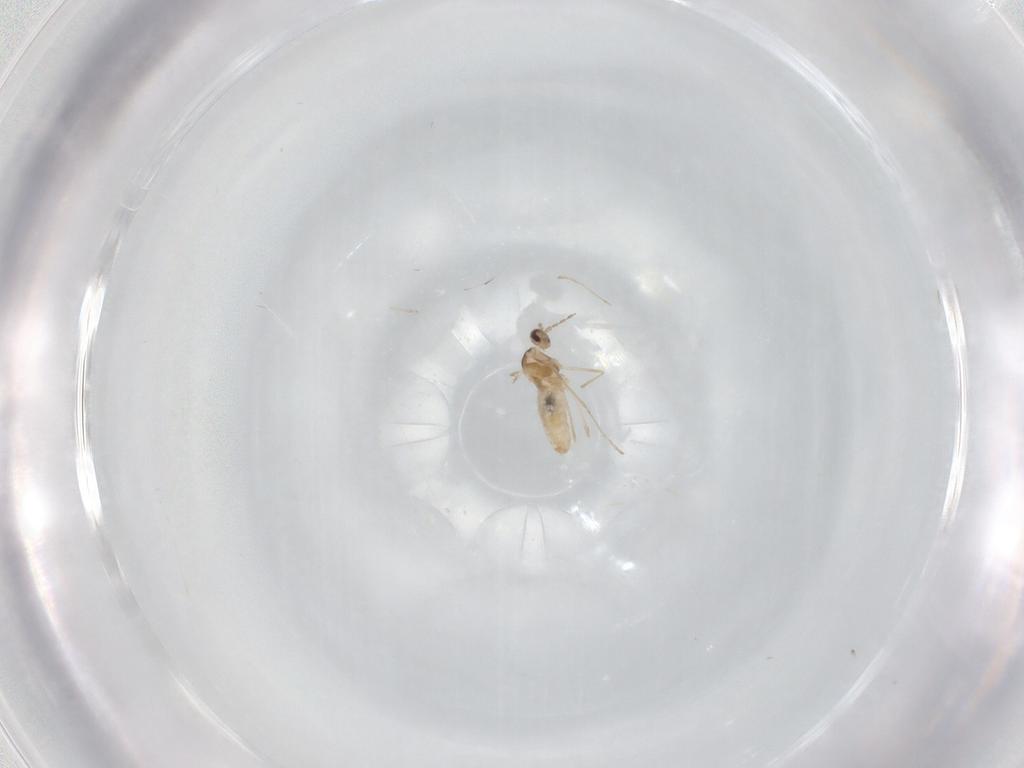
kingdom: Animalia
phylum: Arthropoda
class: Insecta
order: Diptera
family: Cecidomyiidae
